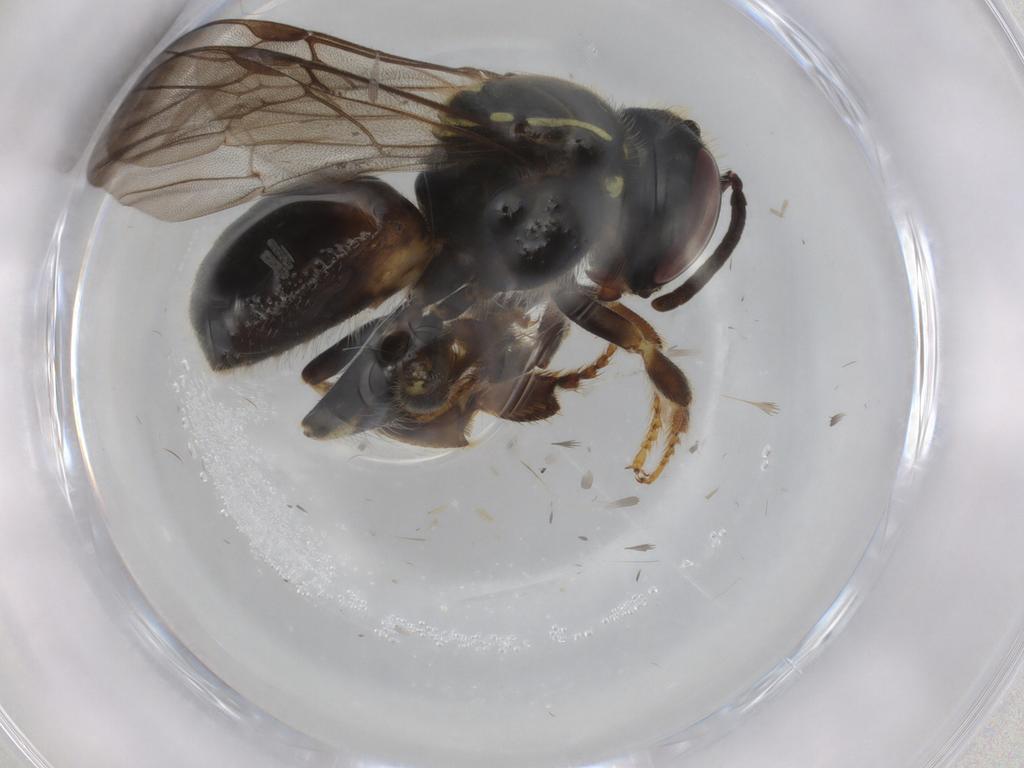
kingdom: Animalia
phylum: Arthropoda
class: Insecta
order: Hymenoptera
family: Apidae
